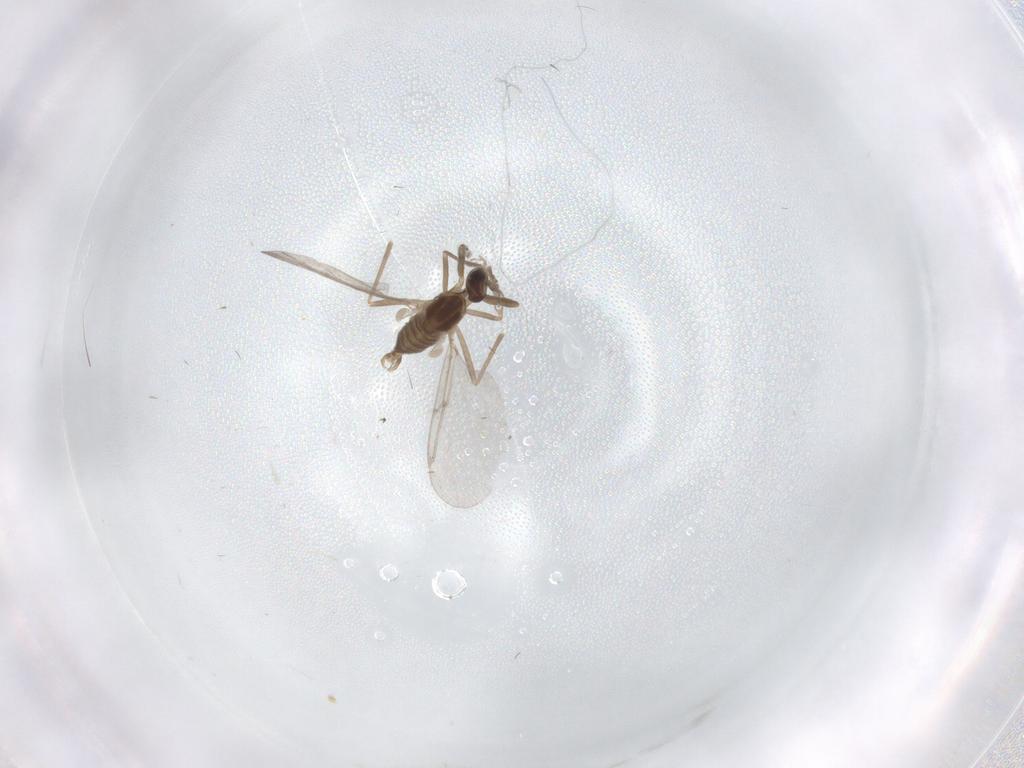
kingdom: Animalia
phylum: Arthropoda
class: Insecta
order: Diptera
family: Cecidomyiidae
